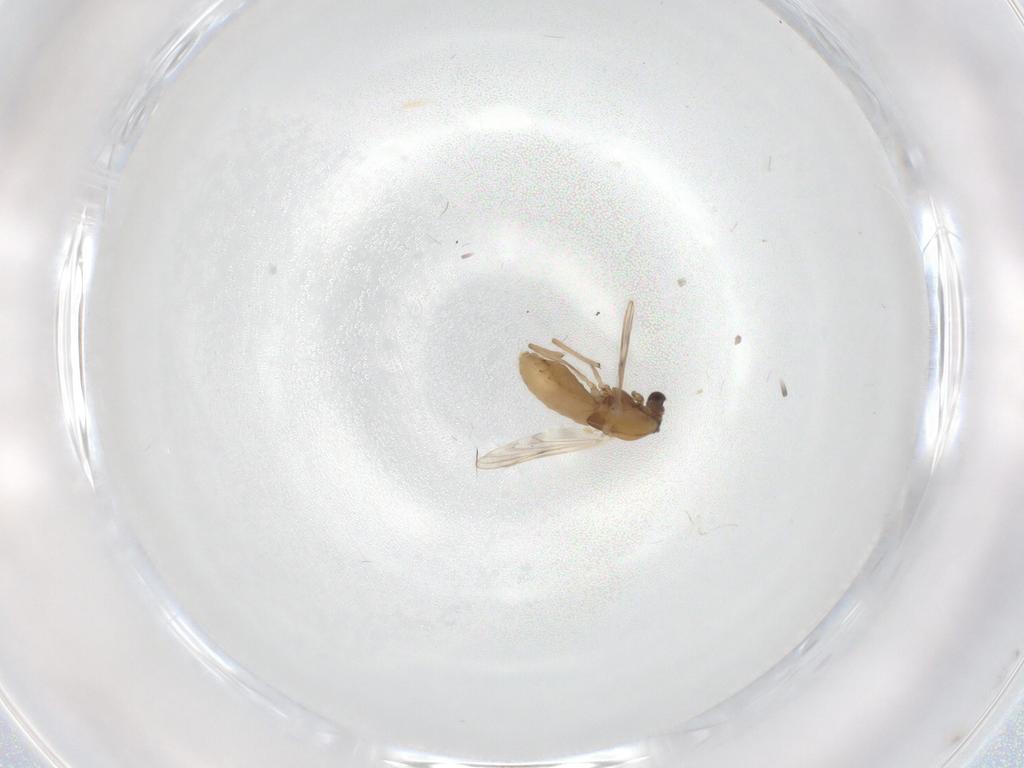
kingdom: Animalia
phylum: Arthropoda
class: Insecta
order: Diptera
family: Chironomidae
